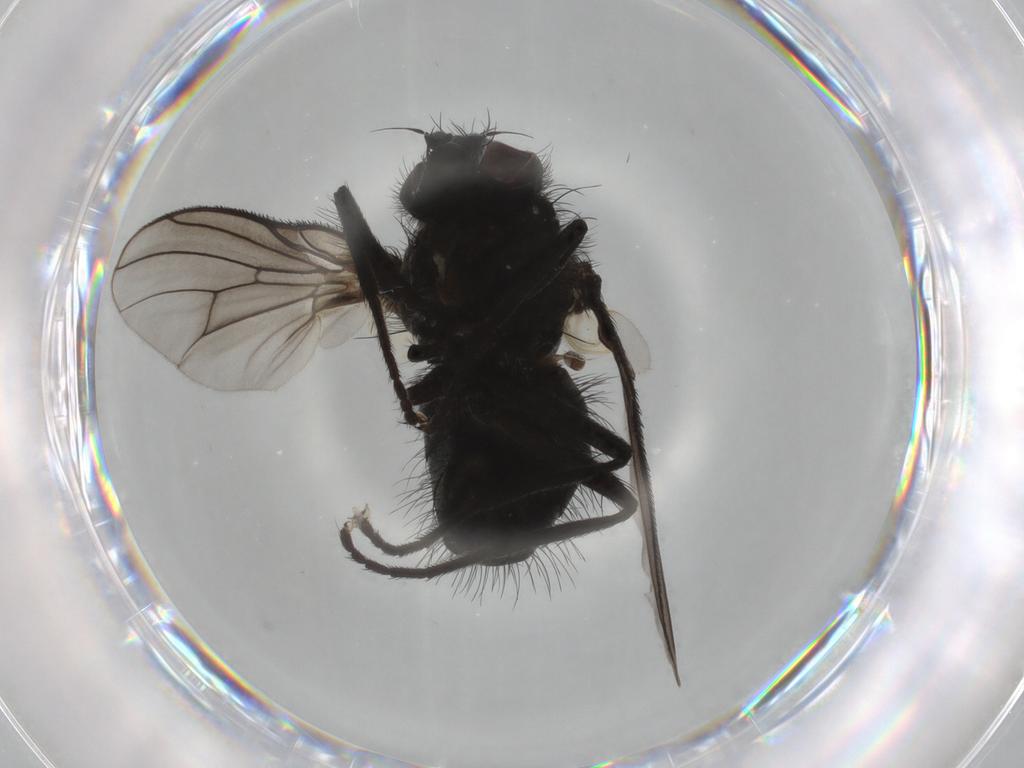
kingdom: Animalia
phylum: Arthropoda
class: Insecta
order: Diptera
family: Muscidae
